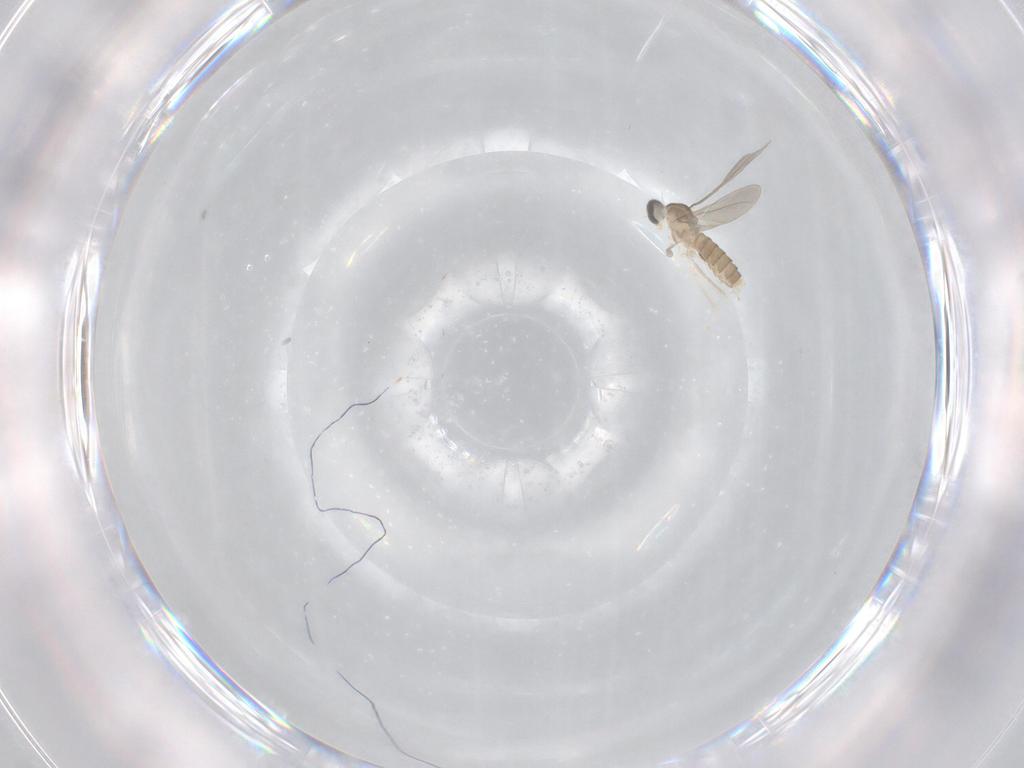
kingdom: Animalia
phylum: Arthropoda
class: Insecta
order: Diptera
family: Cecidomyiidae
